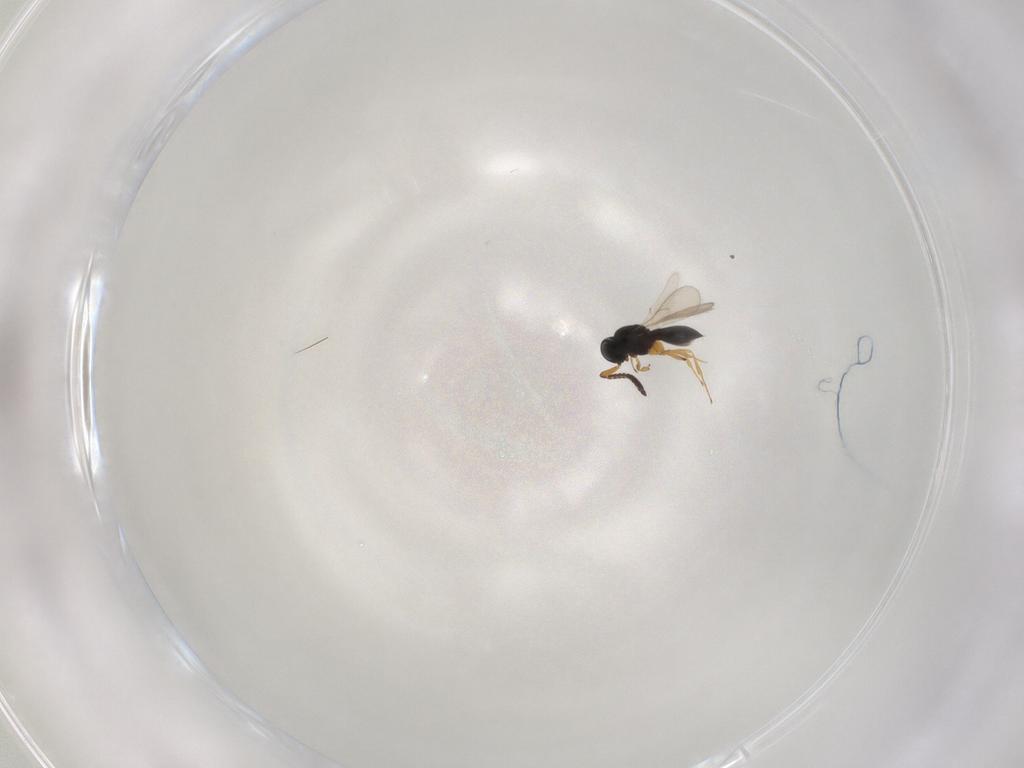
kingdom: Animalia
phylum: Arthropoda
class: Insecta
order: Hymenoptera
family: Scelionidae
